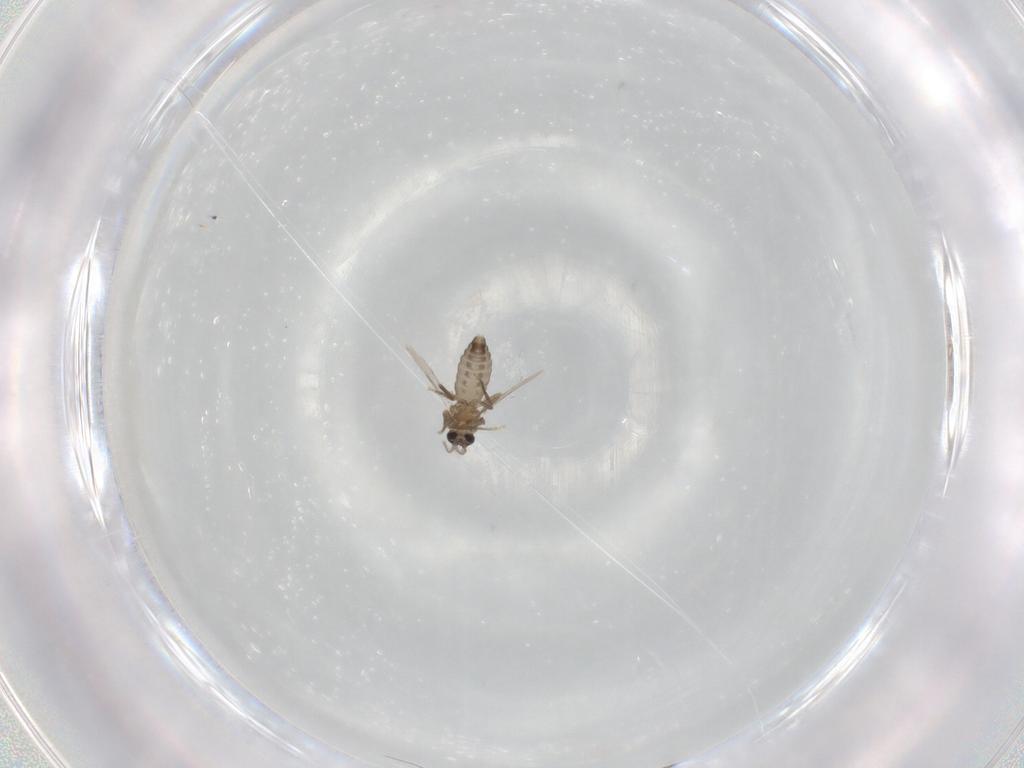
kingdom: Animalia
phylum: Arthropoda
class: Insecta
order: Diptera
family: Ceratopogonidae
